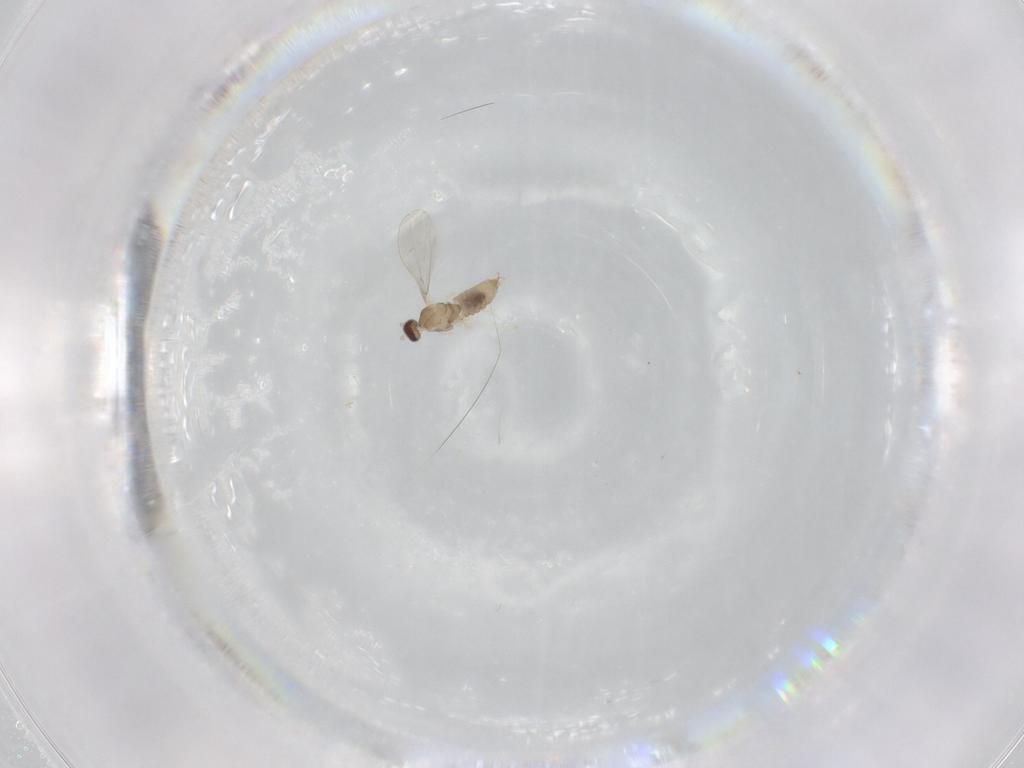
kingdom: Animalia
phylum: Arthropoda
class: Insecta
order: Diptera
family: Cecidomyiidae
